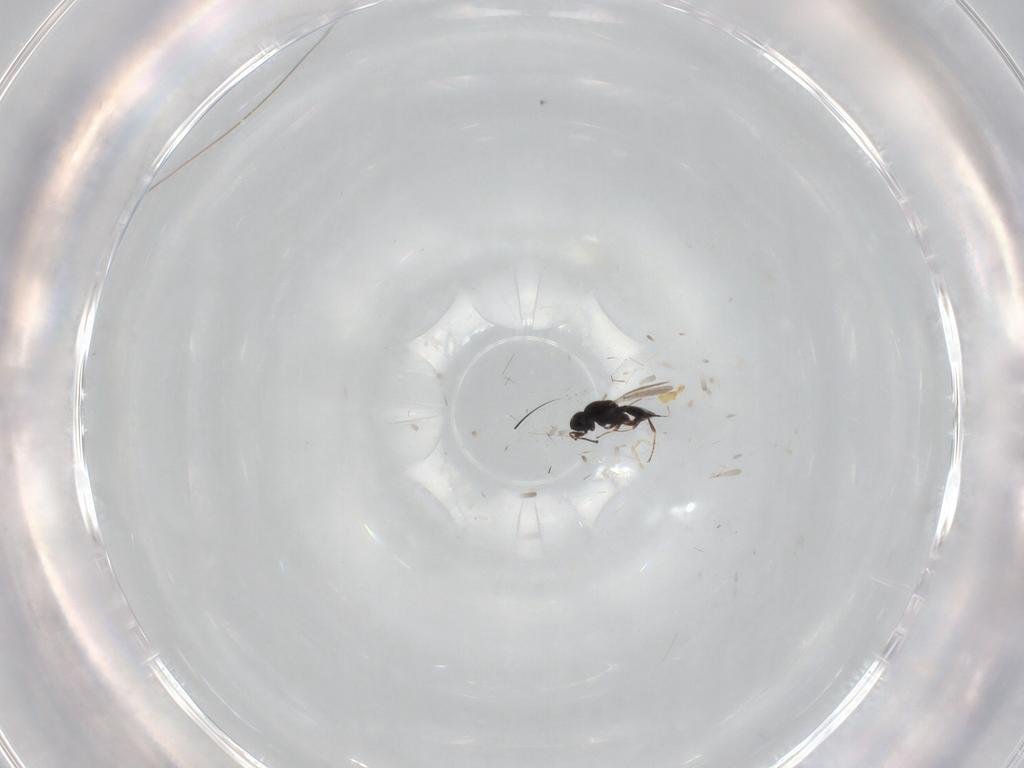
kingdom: Animalia
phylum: Arthropoda
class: Insecta
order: Hymenoptera
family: Scelionidae
